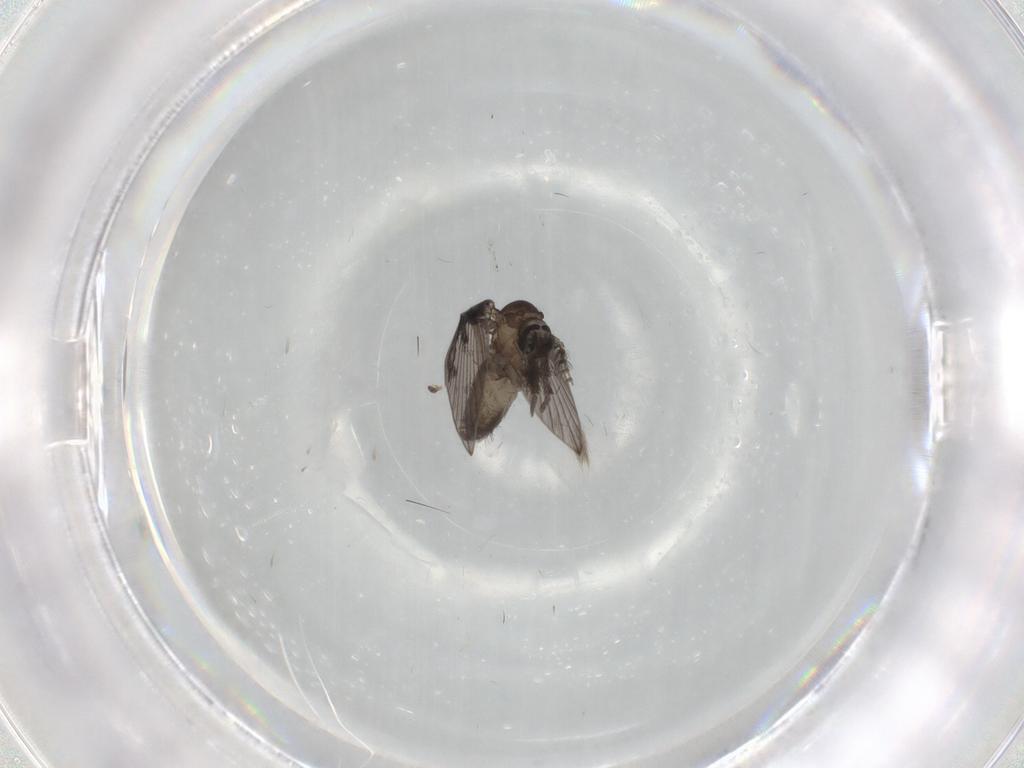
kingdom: Animalia
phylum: Arthropoda
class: Insecta
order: Diptera
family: Psychodidae
